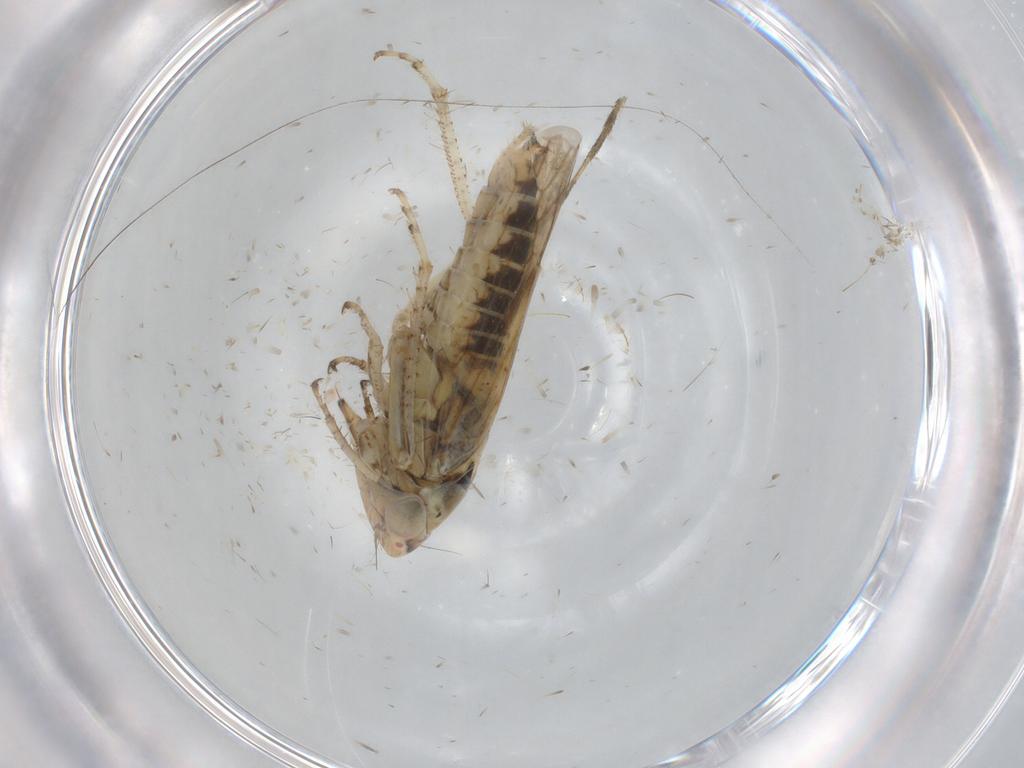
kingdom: Animalia
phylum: Arthropoda
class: Insecta
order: Hemiptera
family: Cicadellidae
